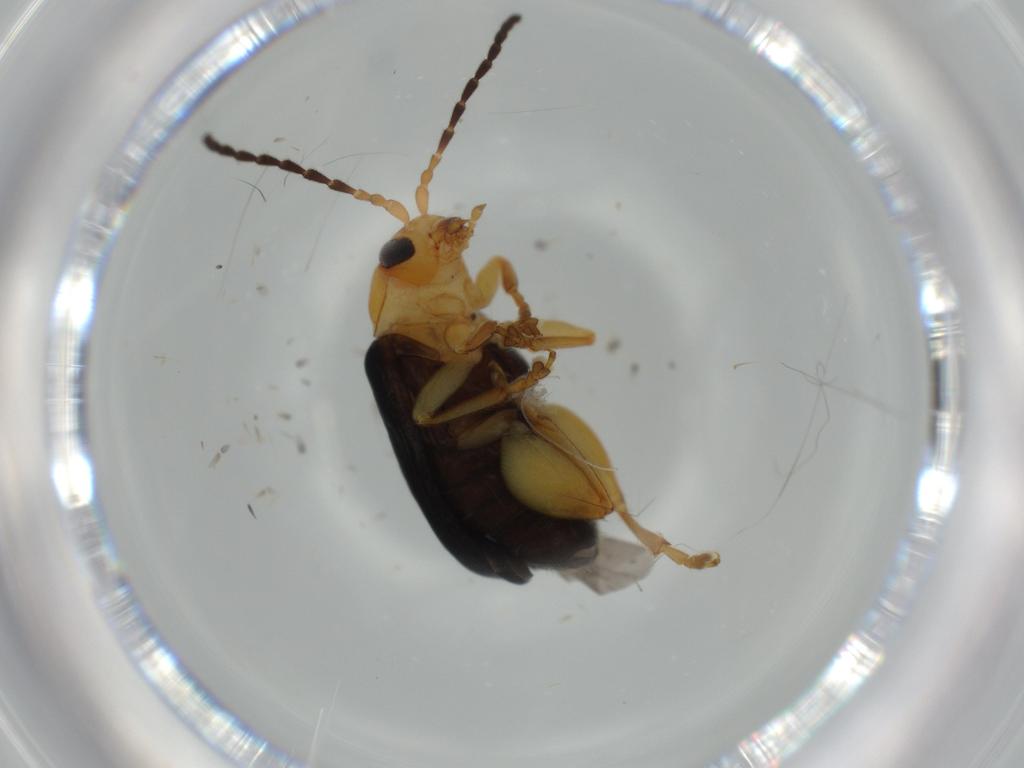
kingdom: Animalia
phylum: Arthropoda
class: Insecta
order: Coleoptera
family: Chrysomelidae
